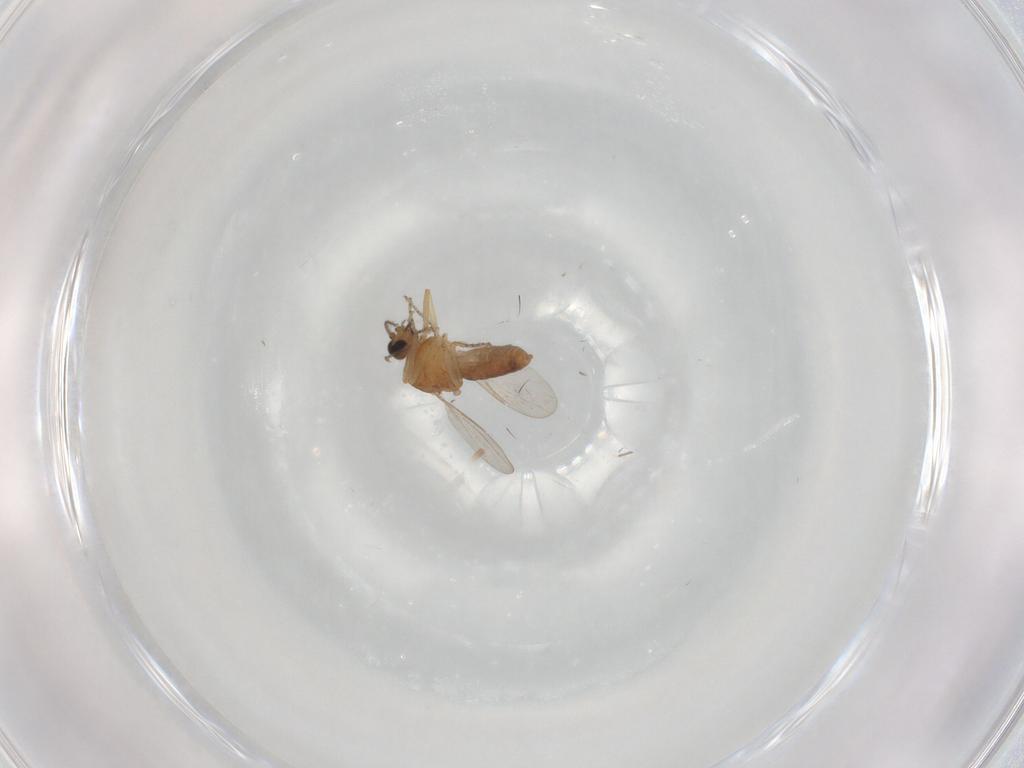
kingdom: Animalia
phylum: Arthropoda
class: Insecta
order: Diptera
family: Ceratopogonidae
